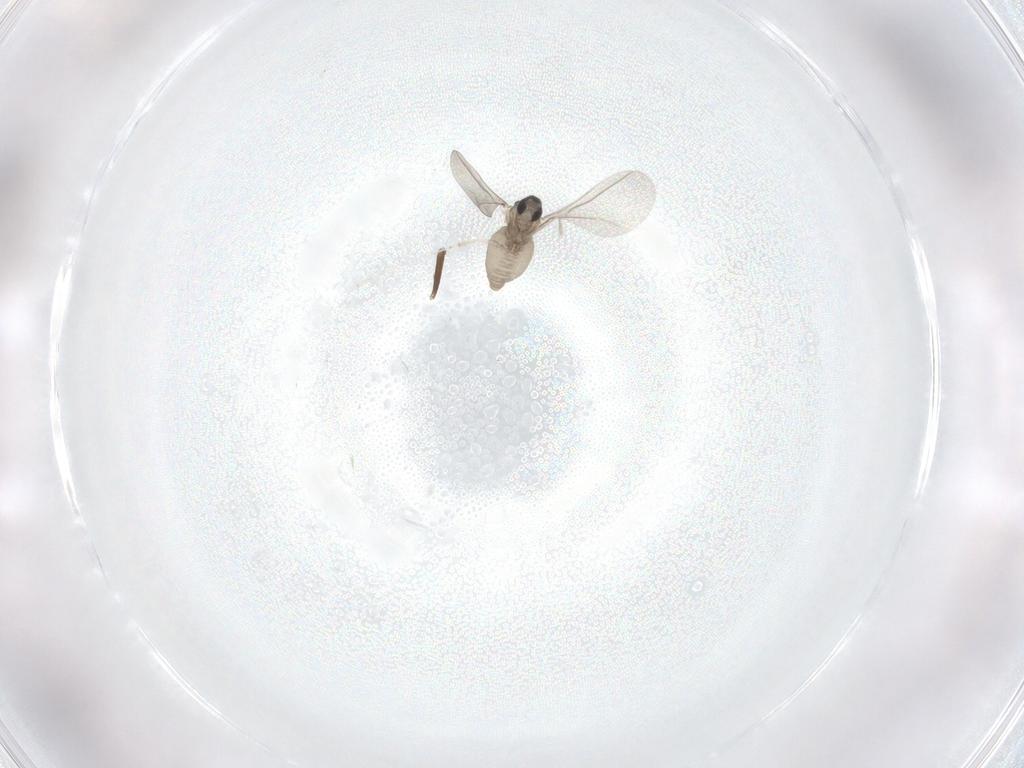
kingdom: Animalia
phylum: Arthropoda
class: Insecta
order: Diptera
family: Cecidomyiidae
